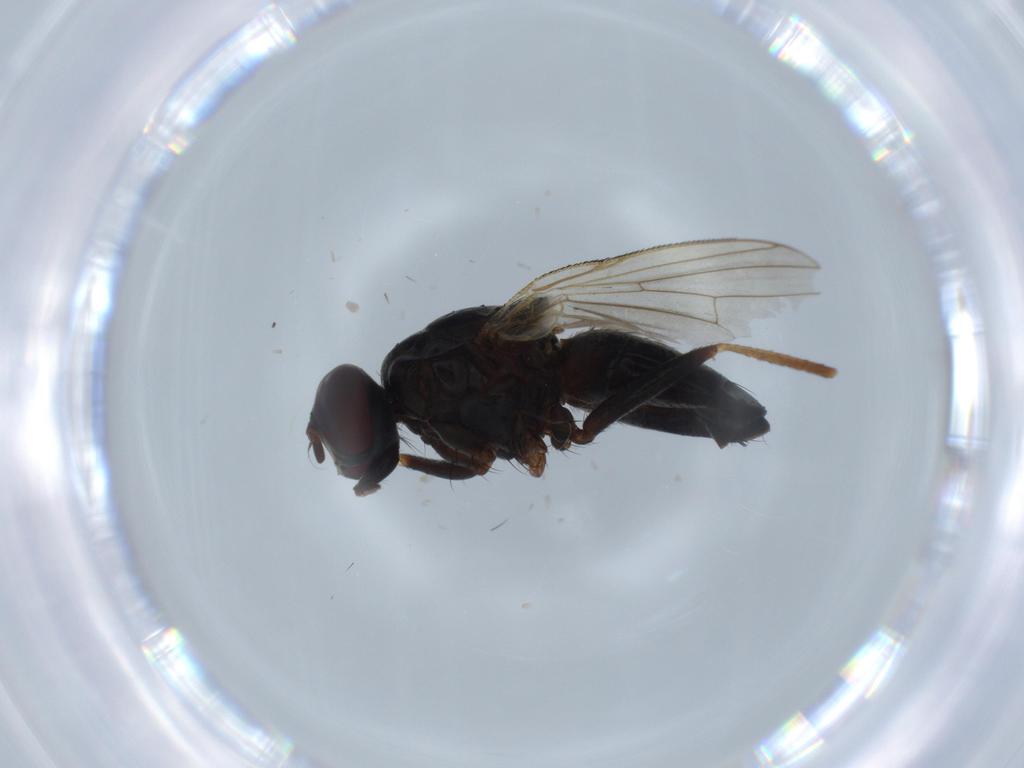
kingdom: Animalia
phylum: Arthropoda
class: Insecta
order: Diptera
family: Muscidae
